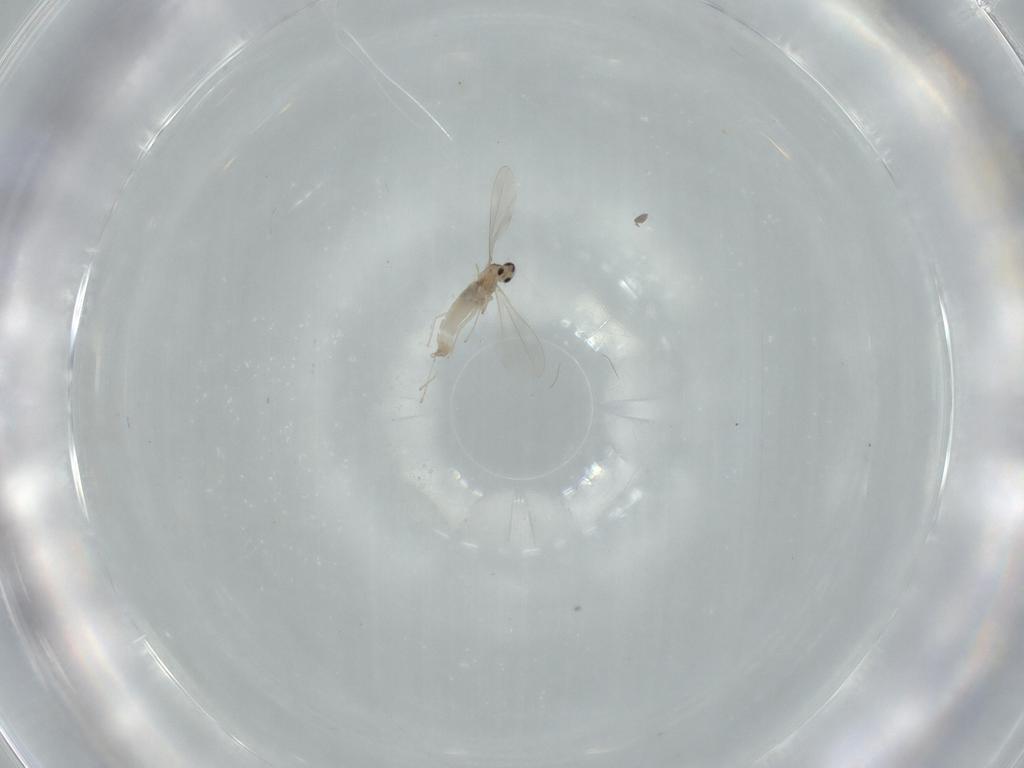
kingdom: Animalia
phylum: Arthropoda
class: Insecta
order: Diptera
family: Cecidomyiidae
